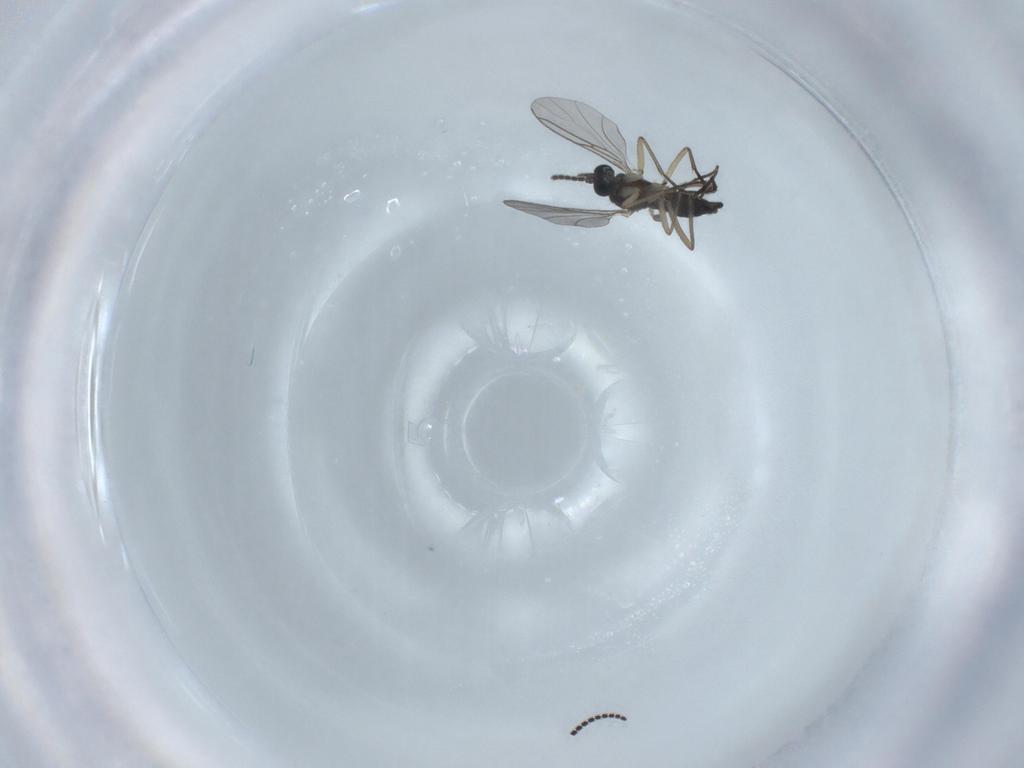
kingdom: Animalia
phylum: Arthropoda
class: Insecta
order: Diptera
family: Sciaridae
